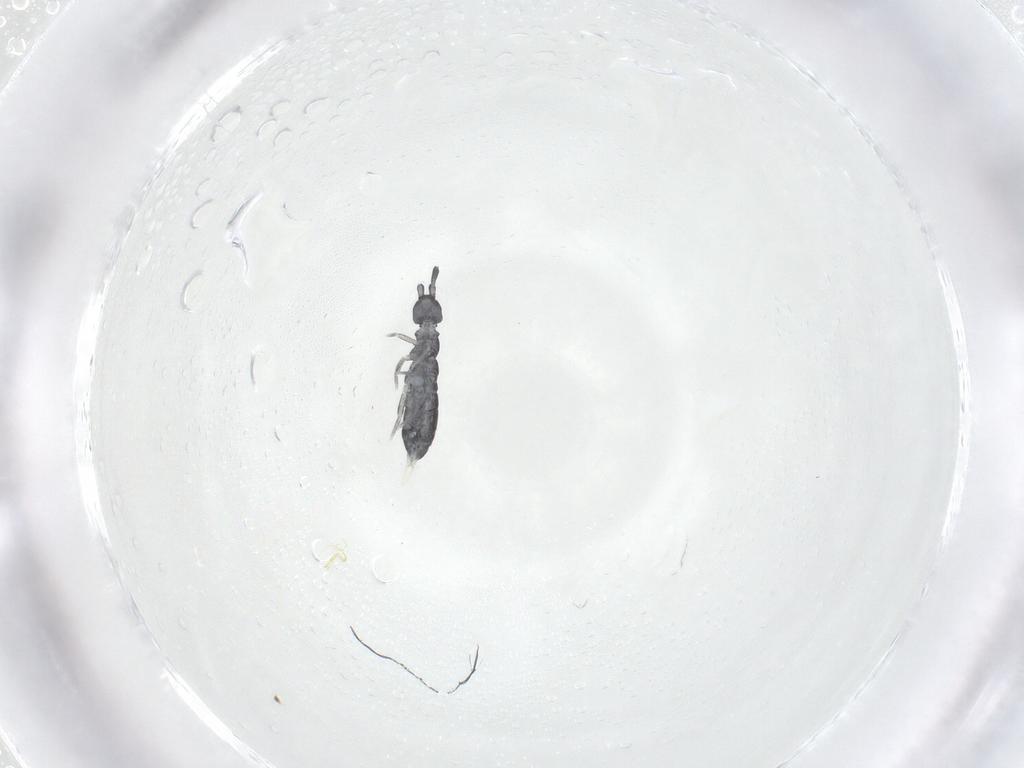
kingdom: Animalia
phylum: Arthropoda
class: Collembola
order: Entomobryomorpha
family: Isotomidae
